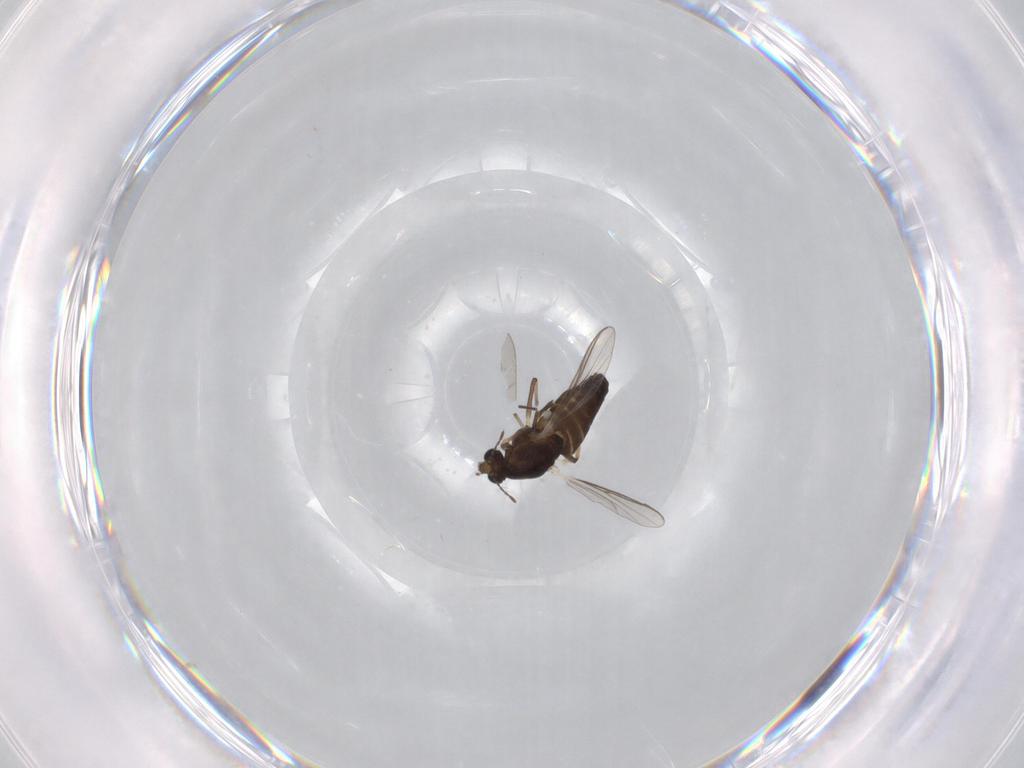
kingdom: Animalia
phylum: Arthropoda
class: Insecta
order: Diptera
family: Chironomidae
